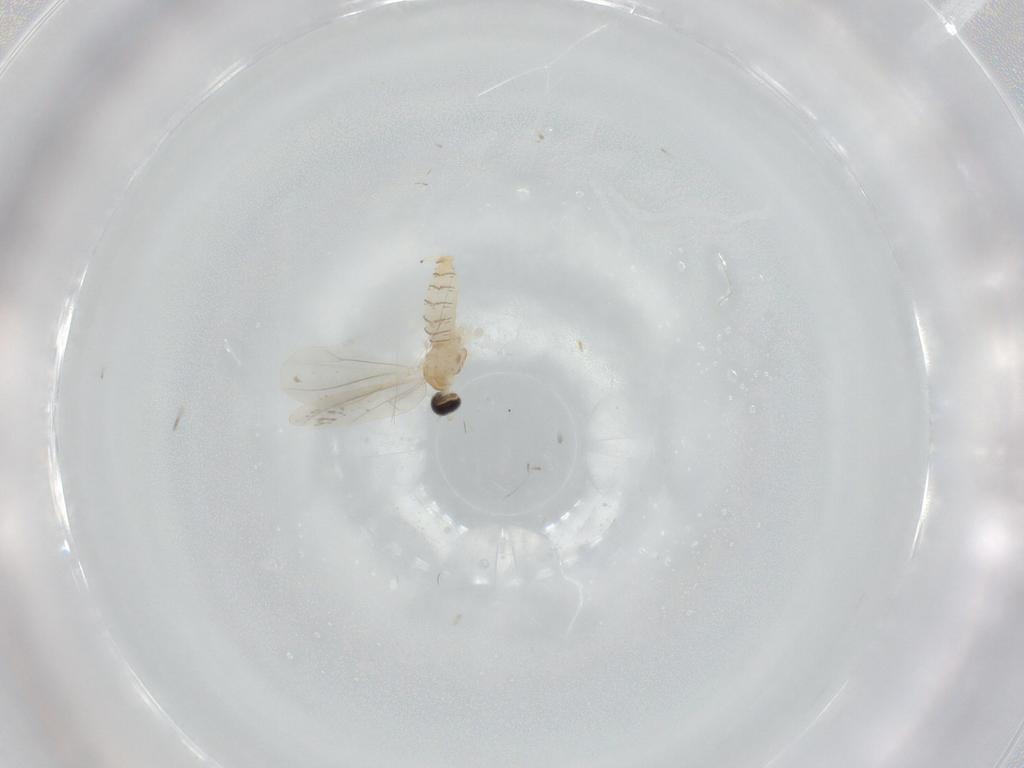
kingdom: Animalia
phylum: Arthropoda
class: Insecta
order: Diptera
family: Cecidomyiidae
